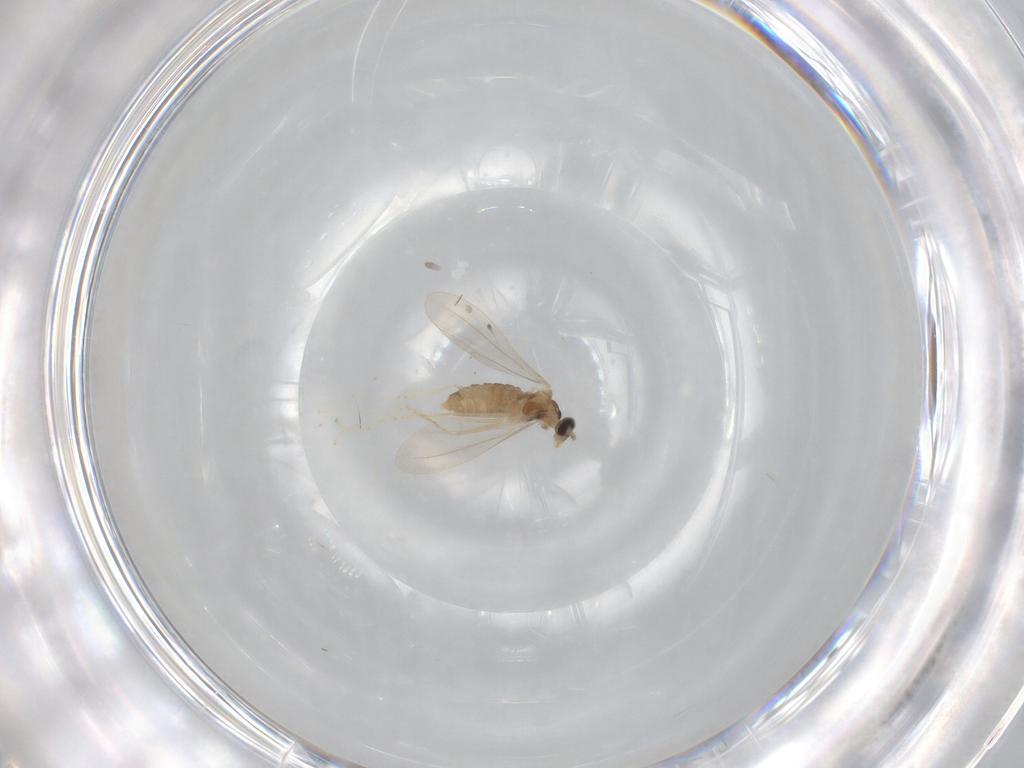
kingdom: Animalia
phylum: Arthropoda
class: Insecta
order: Diptera
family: Cecidomyiidae
